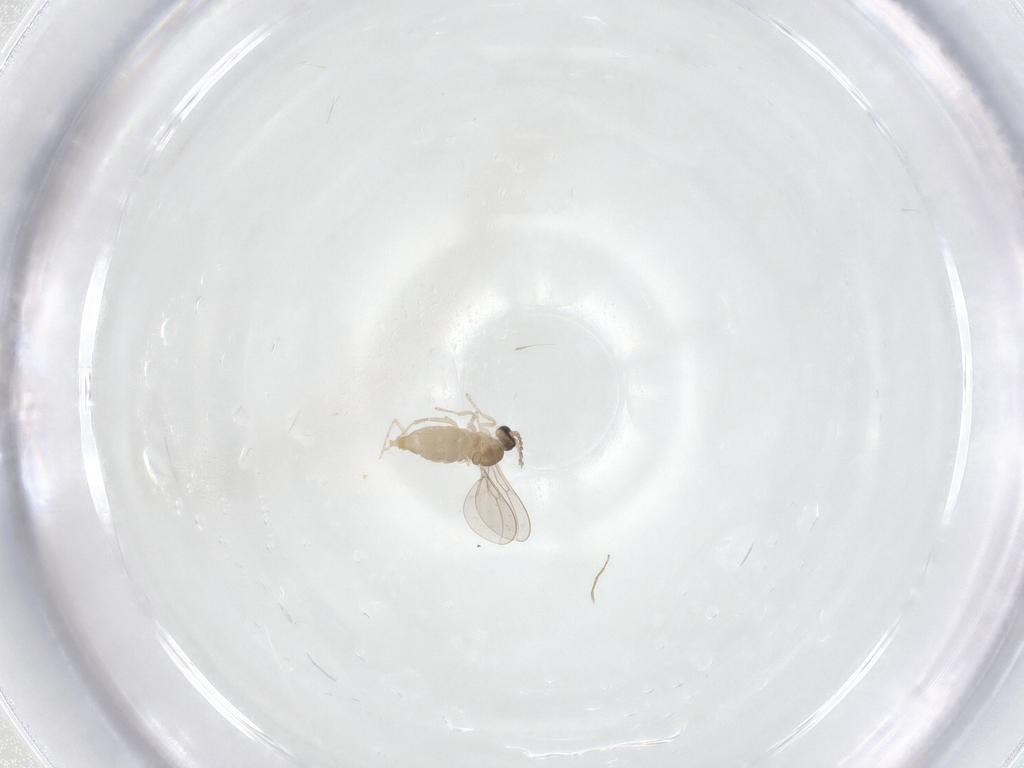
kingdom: Animalia
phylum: Arthropoda
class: Insecta
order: Diptera
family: Cecidomyiidae
